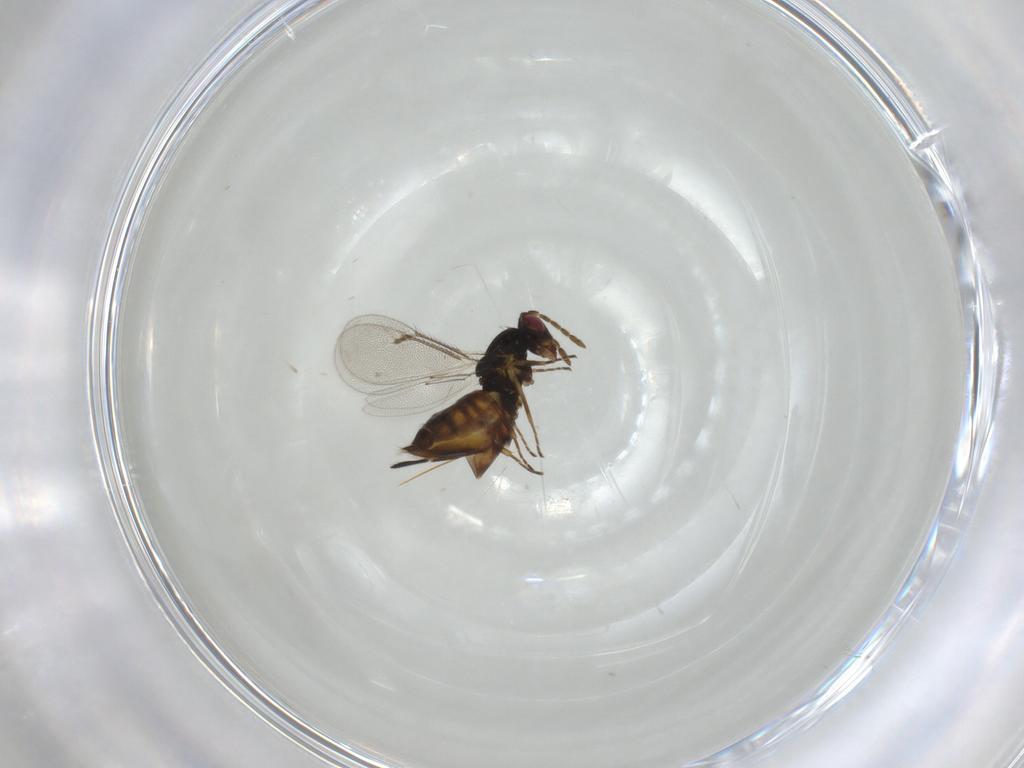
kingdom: Animalia
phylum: Arthropoda
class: Insecta
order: Hymenoptera
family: Eulophidae
